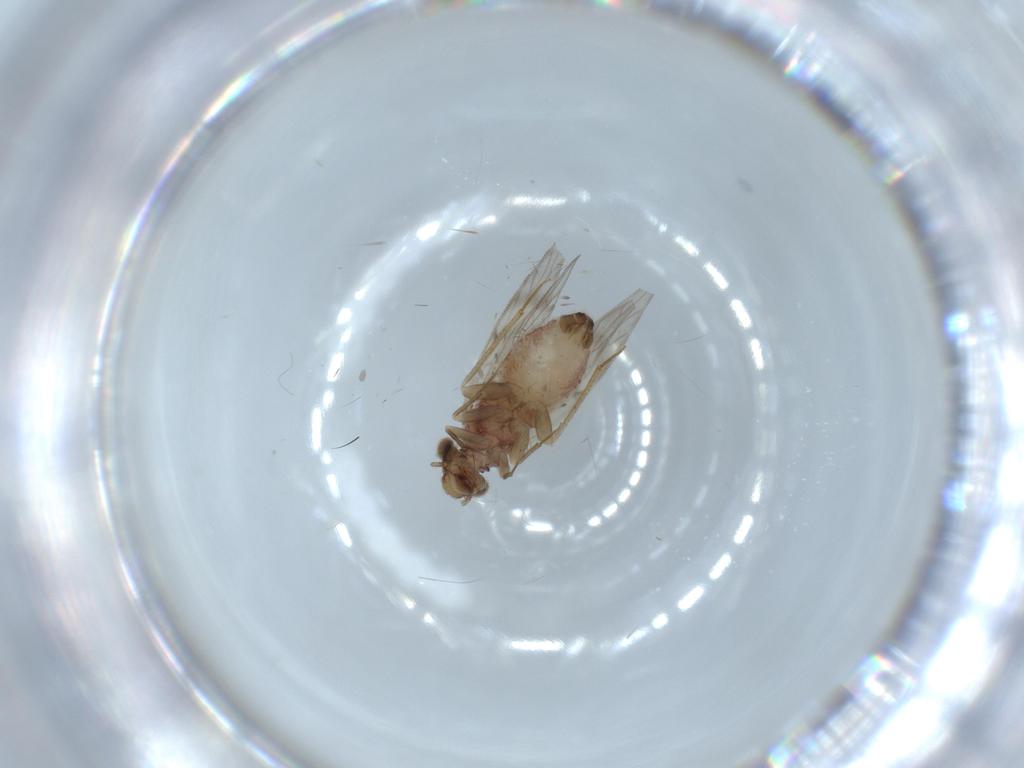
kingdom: Animalia
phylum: Arthropoda
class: Insecta
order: Psocodea
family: Lepidopsocidae
